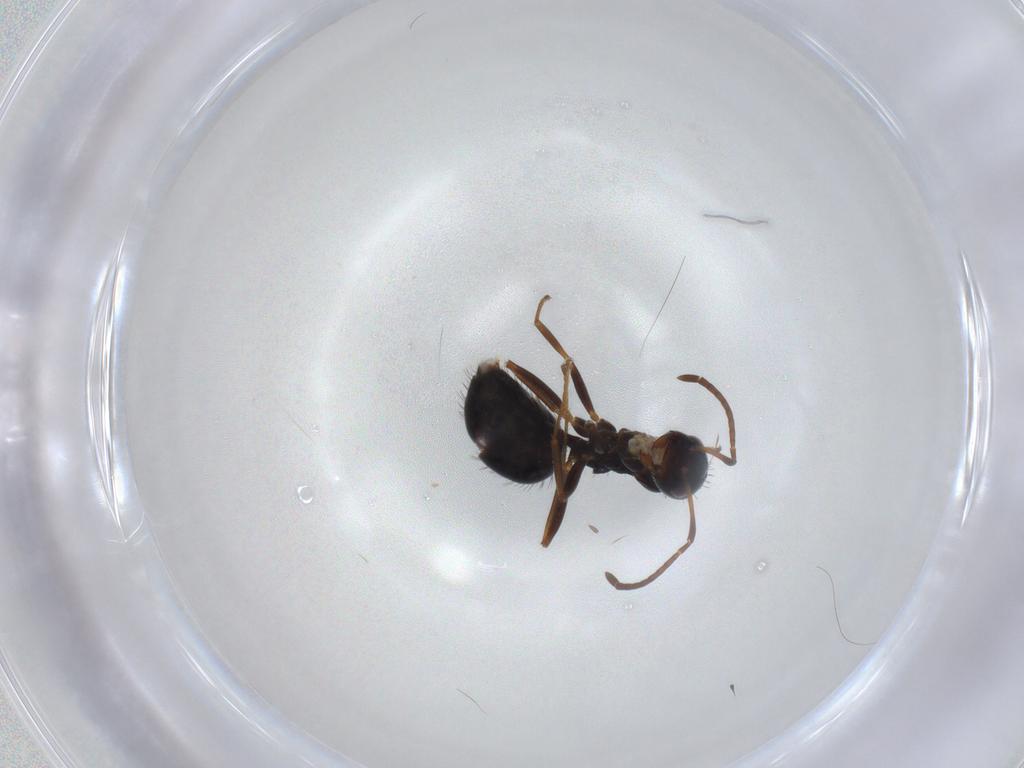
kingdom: Animalia
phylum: Arthropoda
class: Insecta
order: Hymenoptera
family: Formicidae
